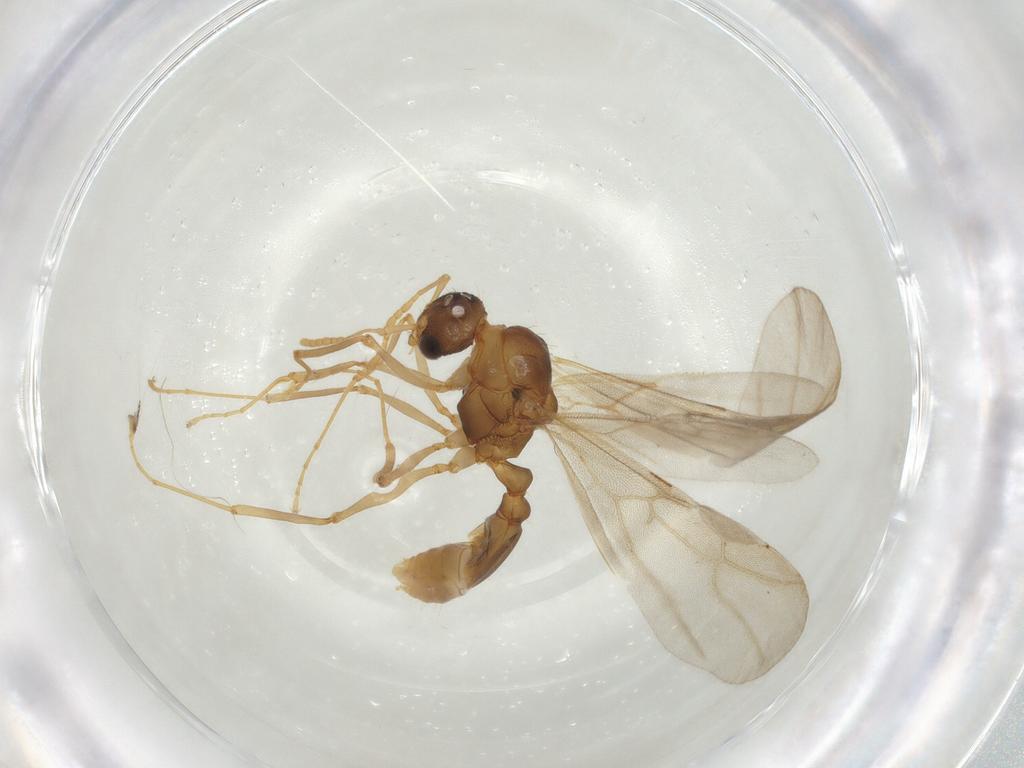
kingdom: Animalia
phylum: Arthropoda
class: Insecta
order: Hymenoptera
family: Formicidae
